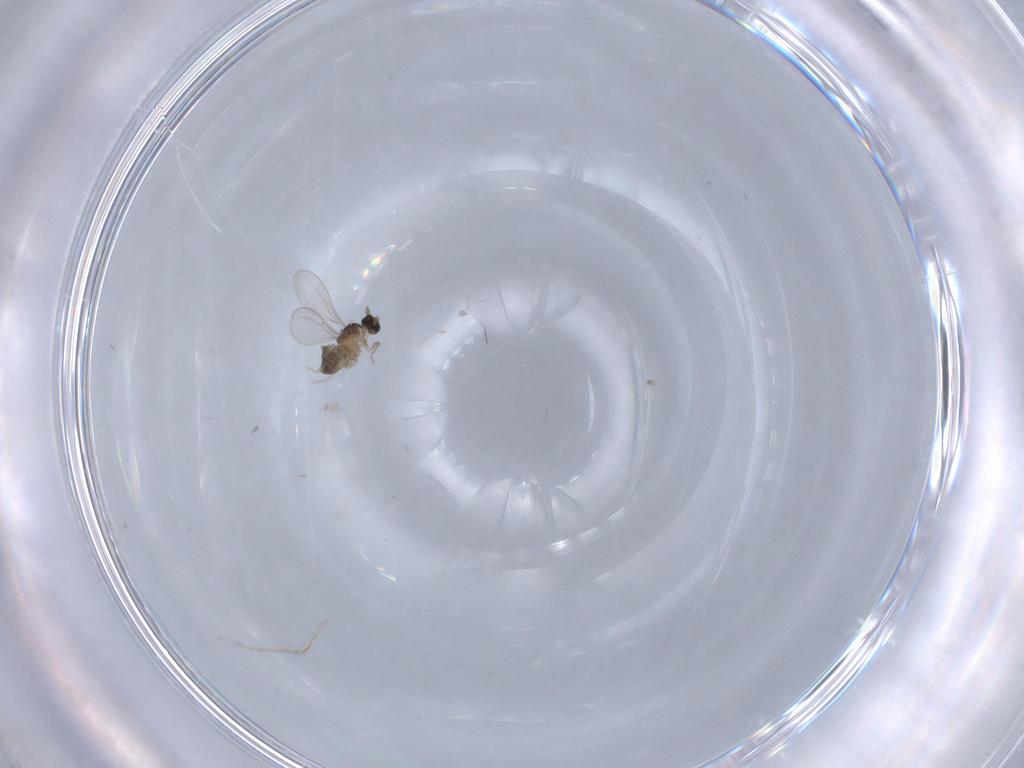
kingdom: Animalia
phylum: Arthropoda
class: Insecta
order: Diptera
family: Cecidomyiidae
